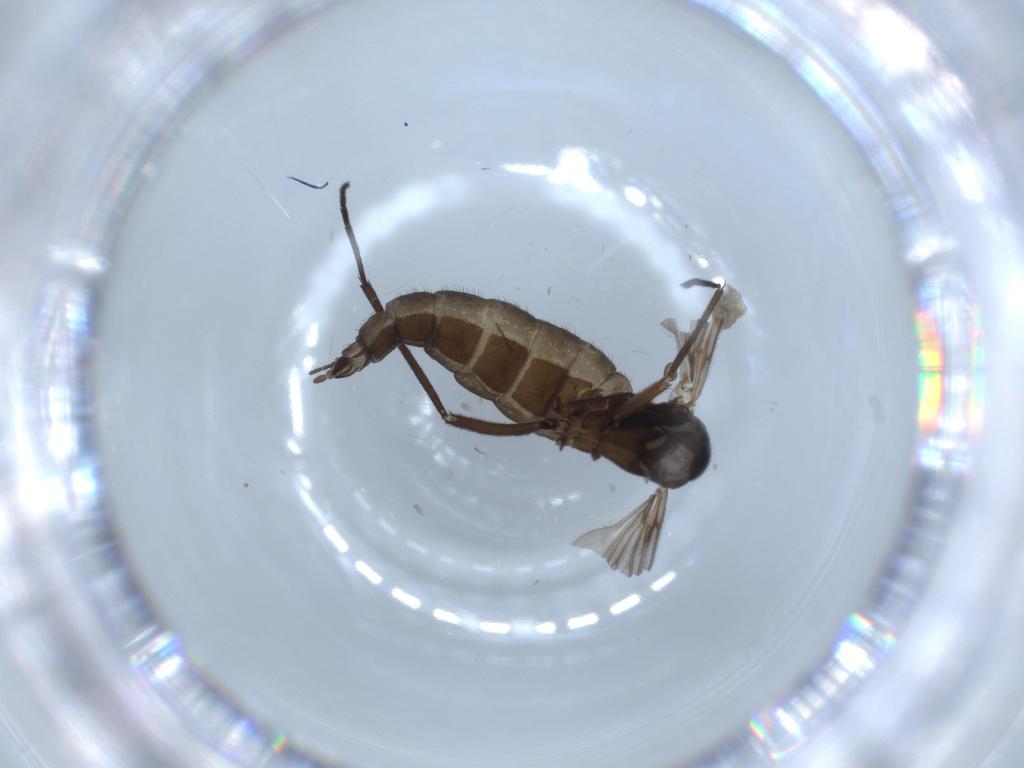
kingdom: Animalia
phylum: Arthropoda
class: Insecta
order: Diptera
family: Sciaridae
